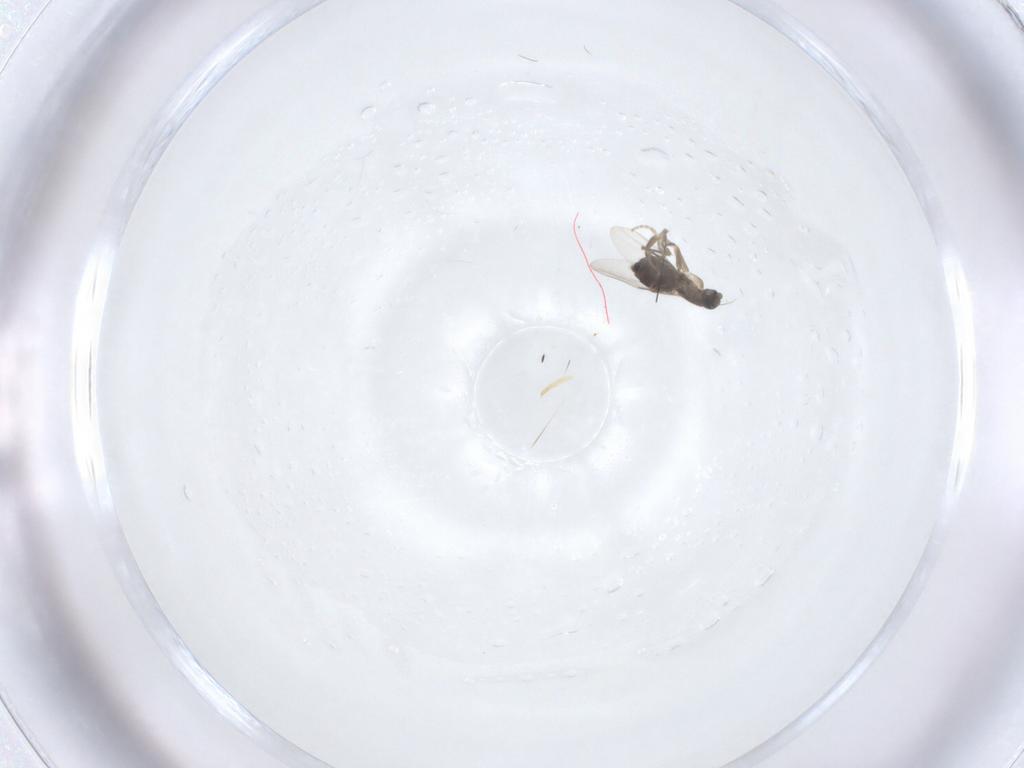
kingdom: Animalia
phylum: Arthropoda
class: Insecta
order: Diptera
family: Phoridae
